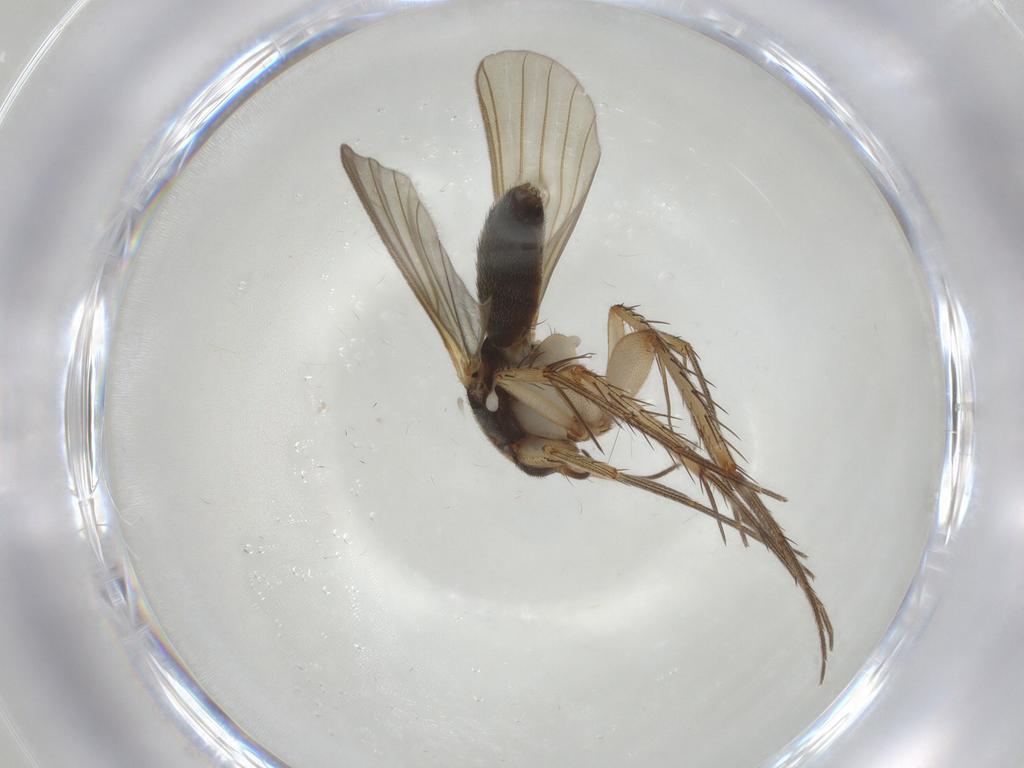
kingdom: Animalia
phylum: Arthropoda
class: Insecta
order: Diptera
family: Mycetophilidae
